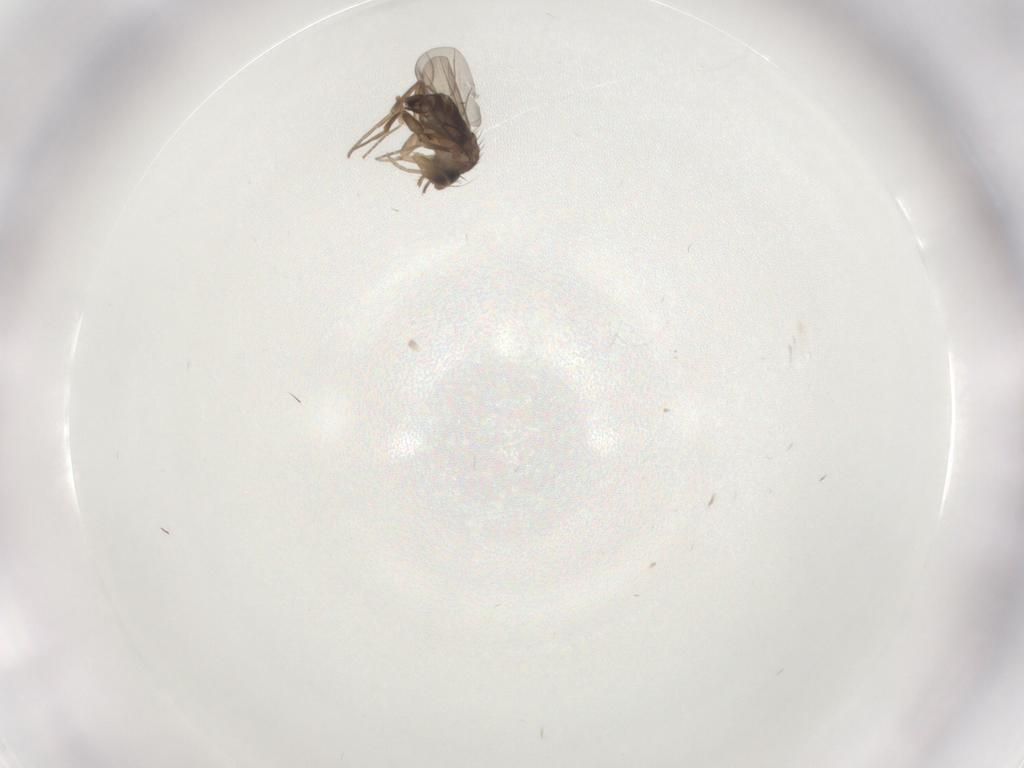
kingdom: Animalia
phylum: Arthropoda
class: Insecta
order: Diptera
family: Phoridae
